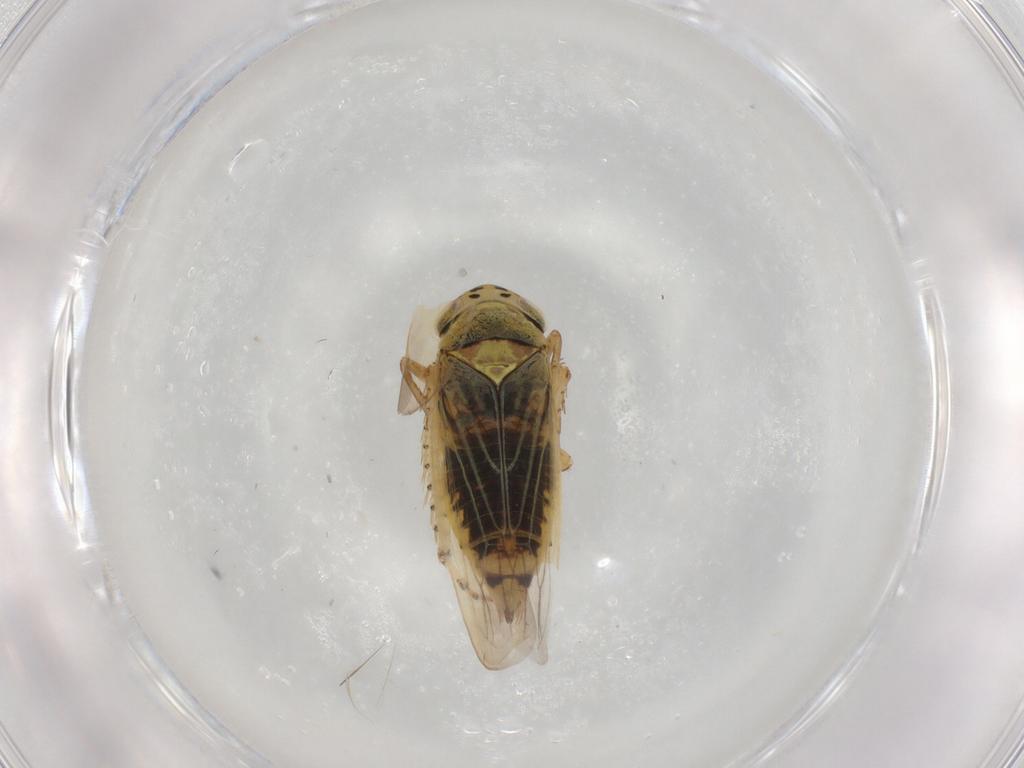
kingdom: Animalia
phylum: Arthropoda
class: Insecta
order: Hemiptera
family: Cicadellidae
